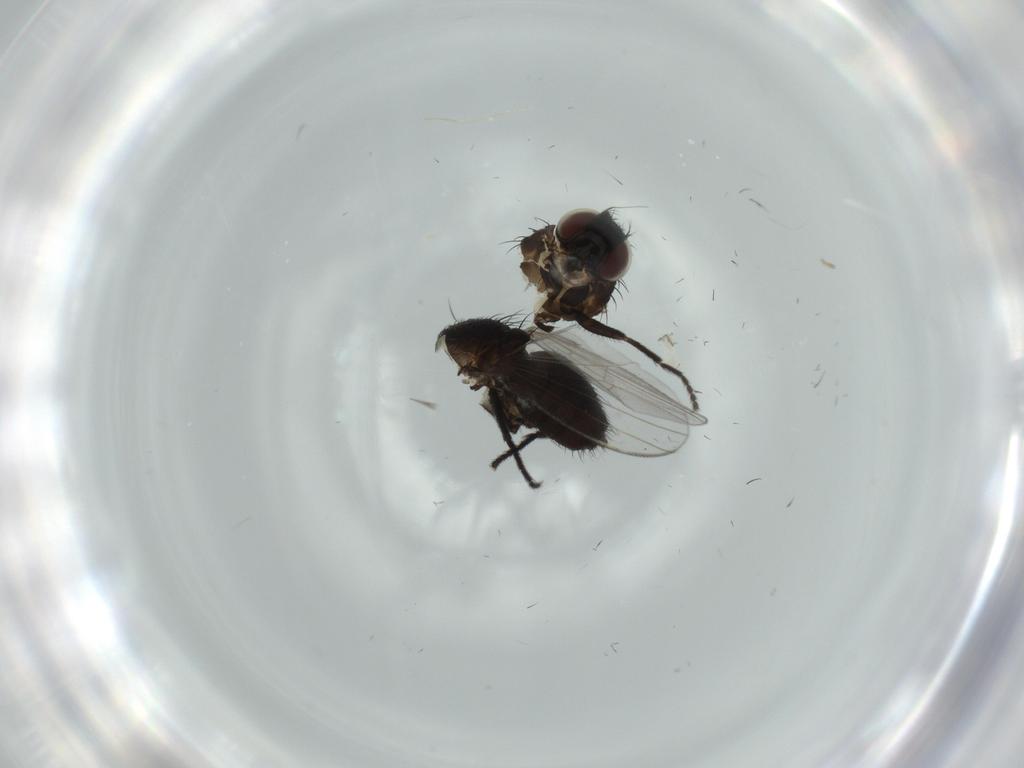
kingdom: Animalia
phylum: Arthropoda
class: Insecta
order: Diptera
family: Milichiidae
